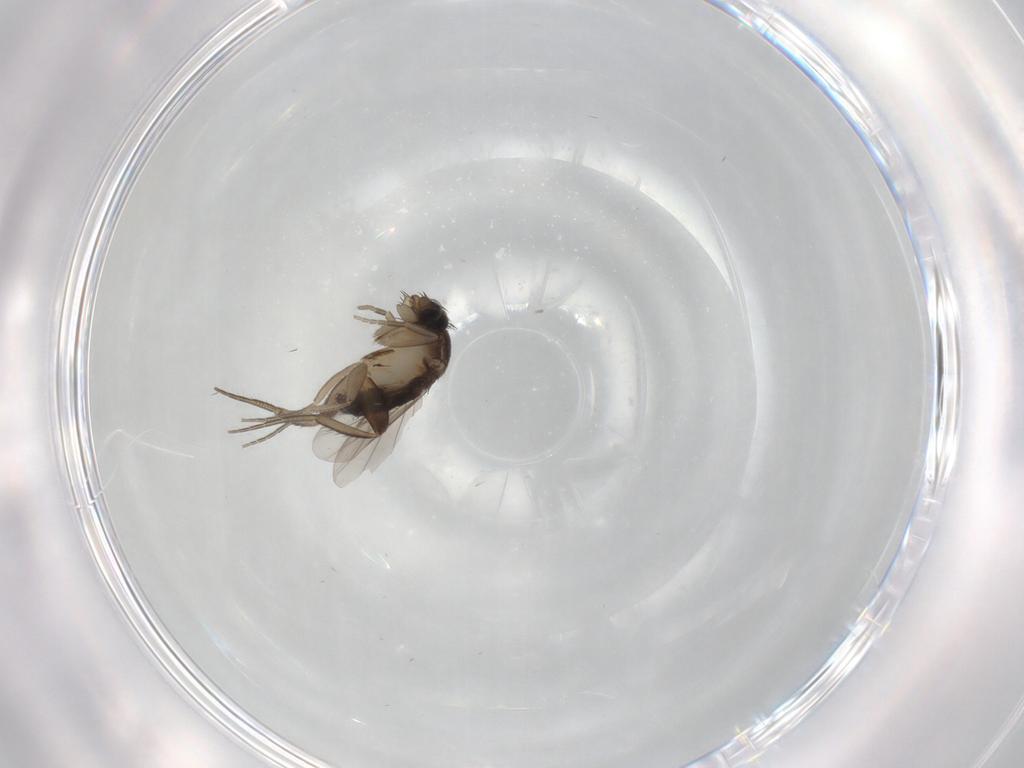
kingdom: Animalia
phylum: Arthropoda
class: Insecta
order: Diptera
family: Phoridae
